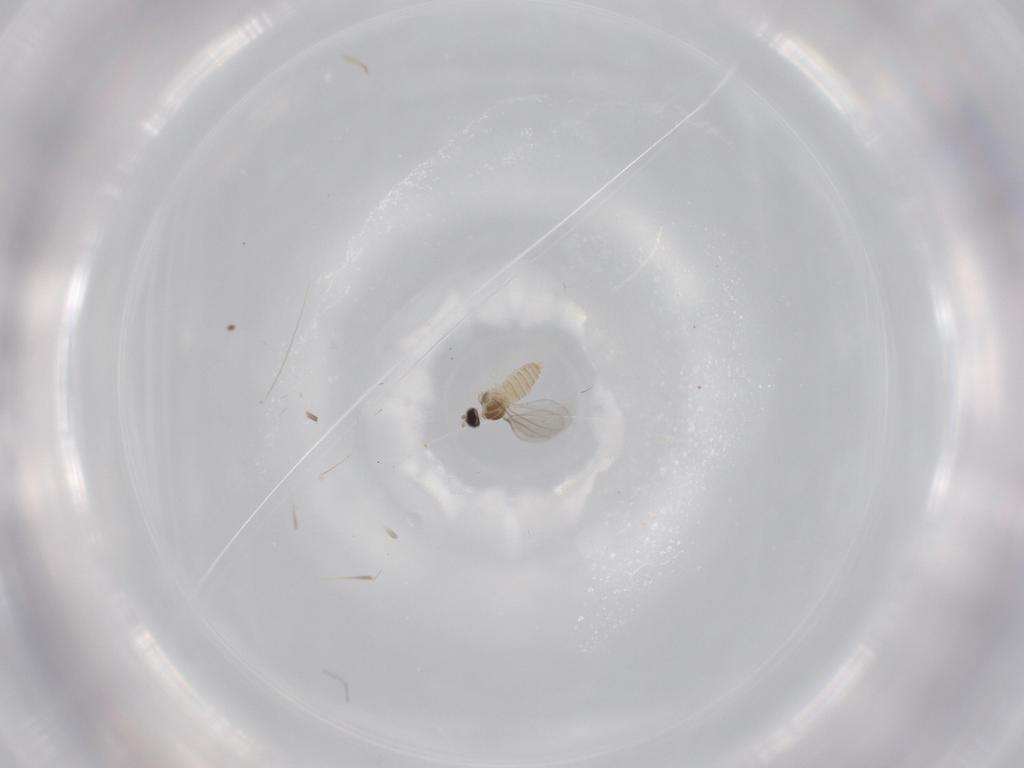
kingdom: Animalia
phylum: Arthropoda
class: Insecta
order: Diptera
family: Cecidomyiidae
